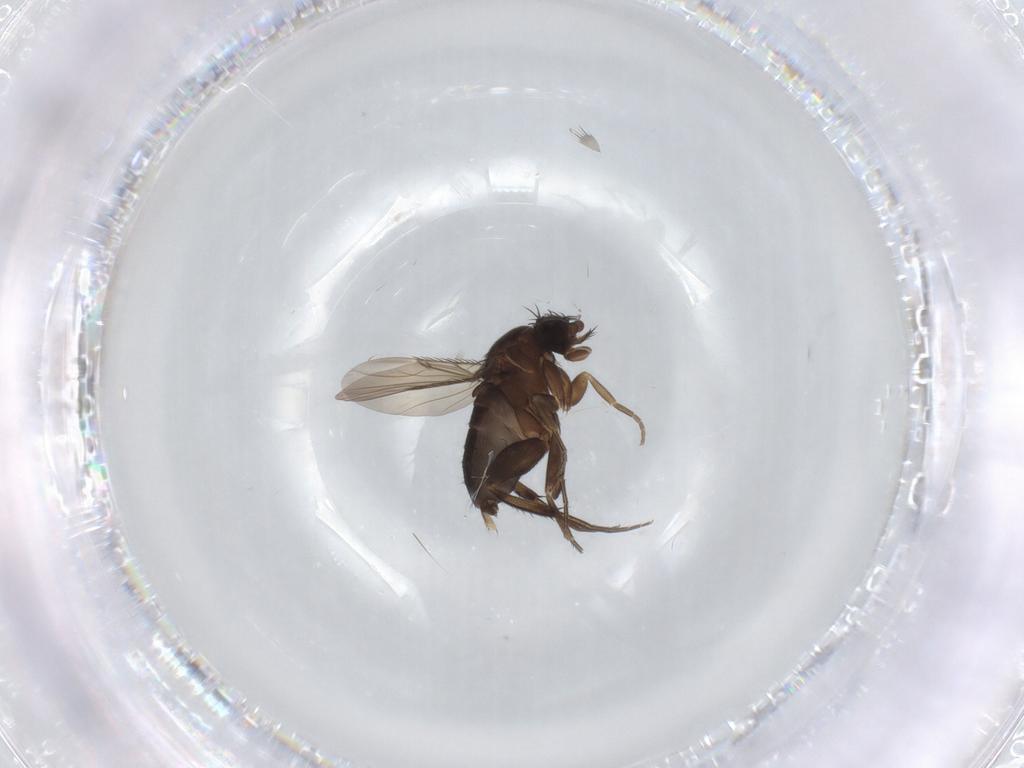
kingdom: Animalia
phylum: Arthropoda
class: Insecta
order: Diptera
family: Phoridae
